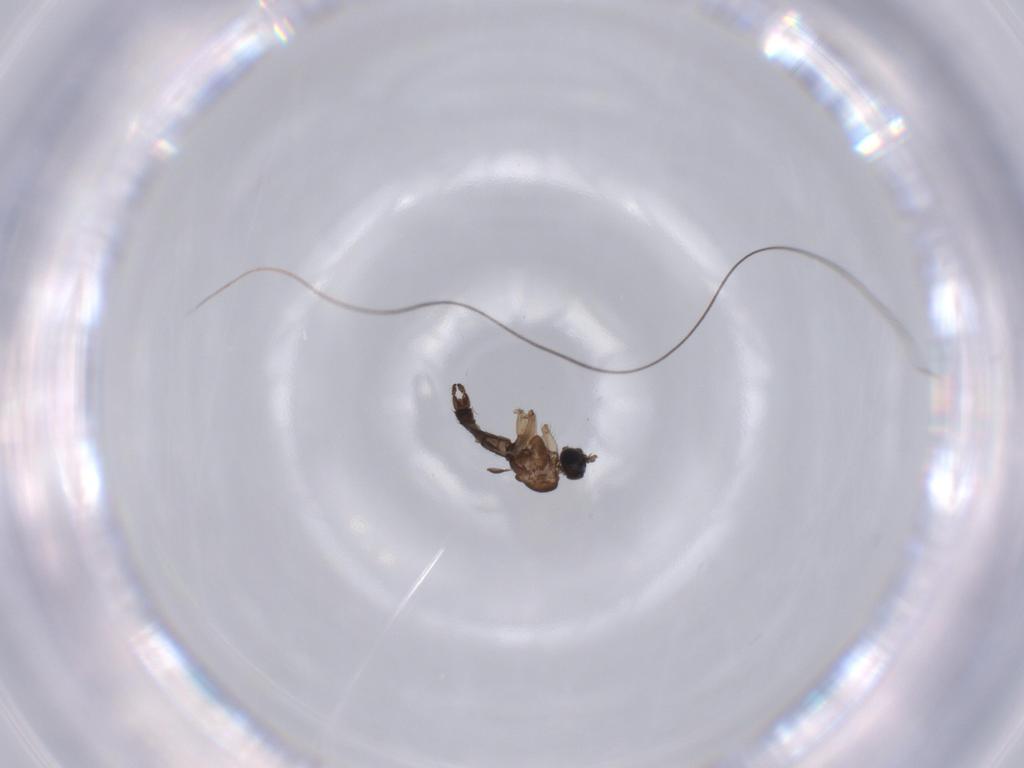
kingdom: Animalia
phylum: Arthropoda
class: Insecta
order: Diptera
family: Sciaridae
